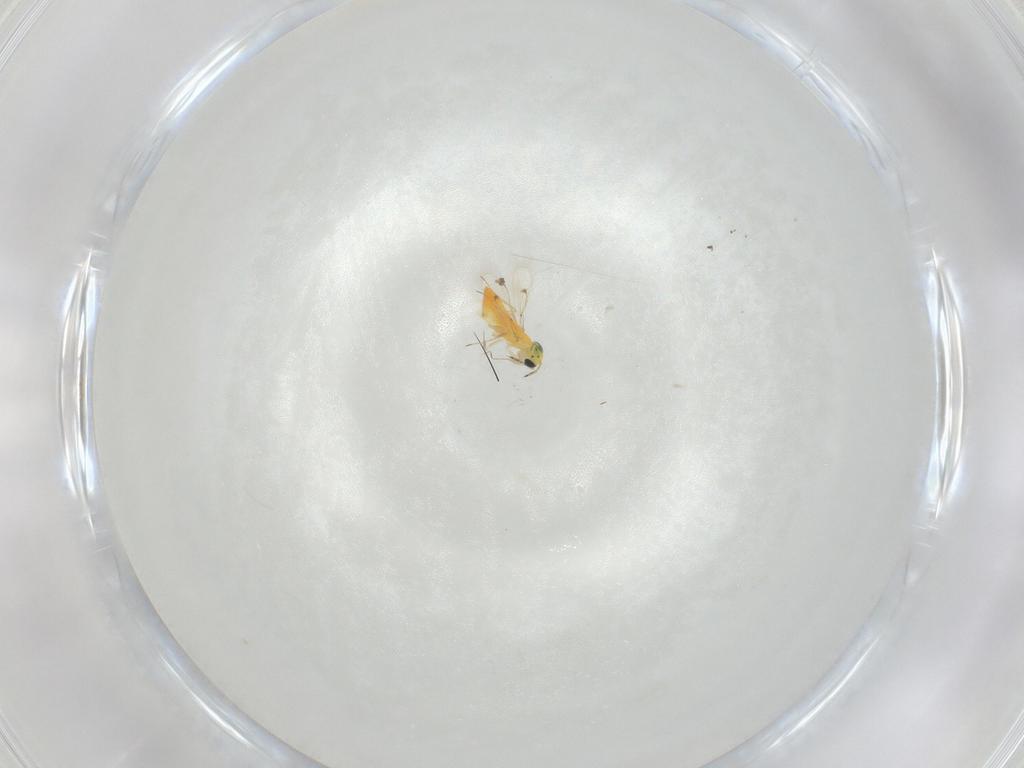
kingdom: Animalia
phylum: Arthropoda
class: Insecta
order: Hymenoptera
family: Trichogrammatidae
